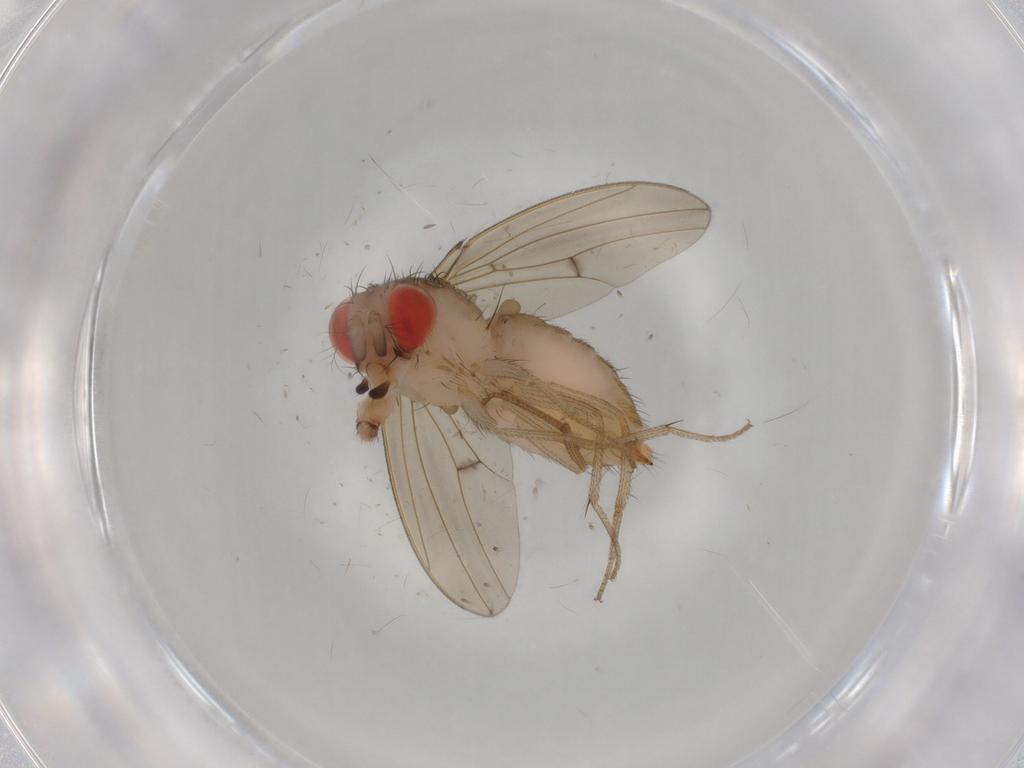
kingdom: Animalia
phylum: Arthropoda
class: Insecta
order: Diptera
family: Drosophilidae
